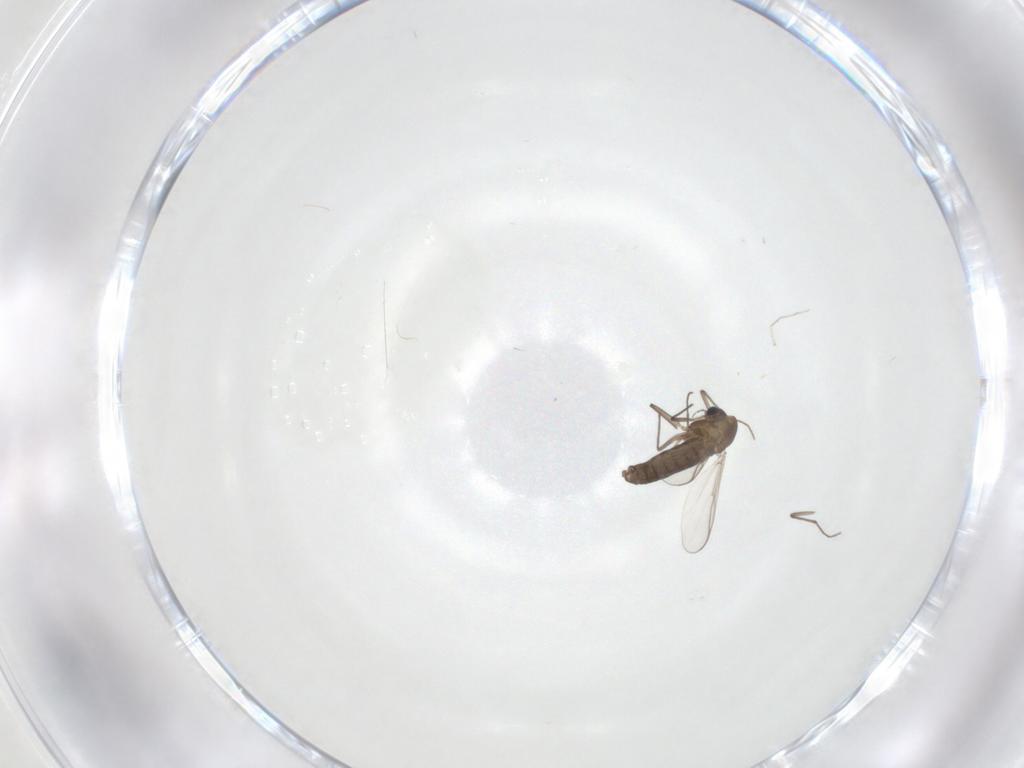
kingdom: Animalia
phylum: Arthropoda
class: Insecta
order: Diptera
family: Chironomidae
